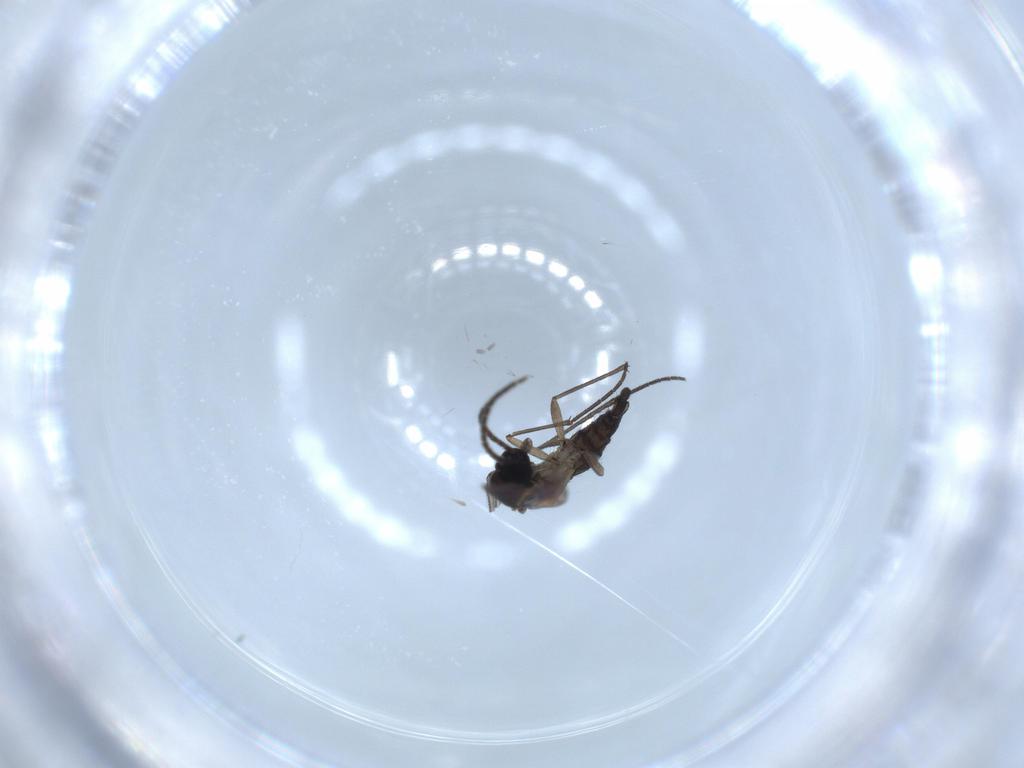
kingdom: Animalia
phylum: Arthropoda
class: Insecta
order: Diptera
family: Sciaridae
